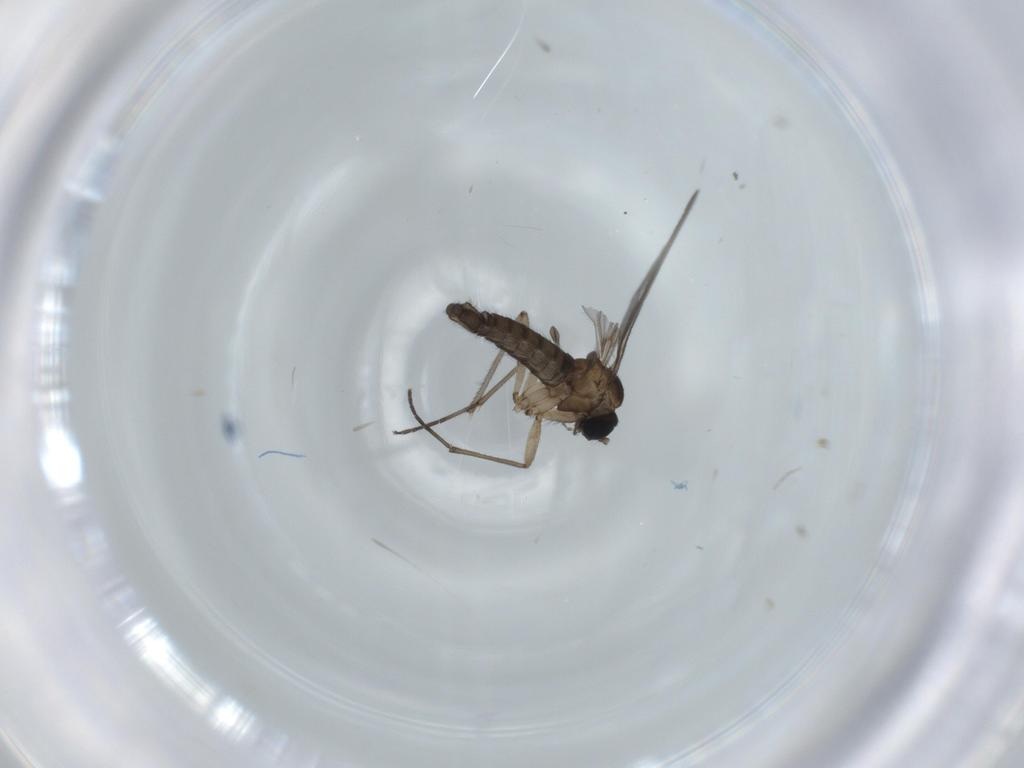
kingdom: Animalia
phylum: Arthropoda
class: Insecta
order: Diptera
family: Sciaridae
